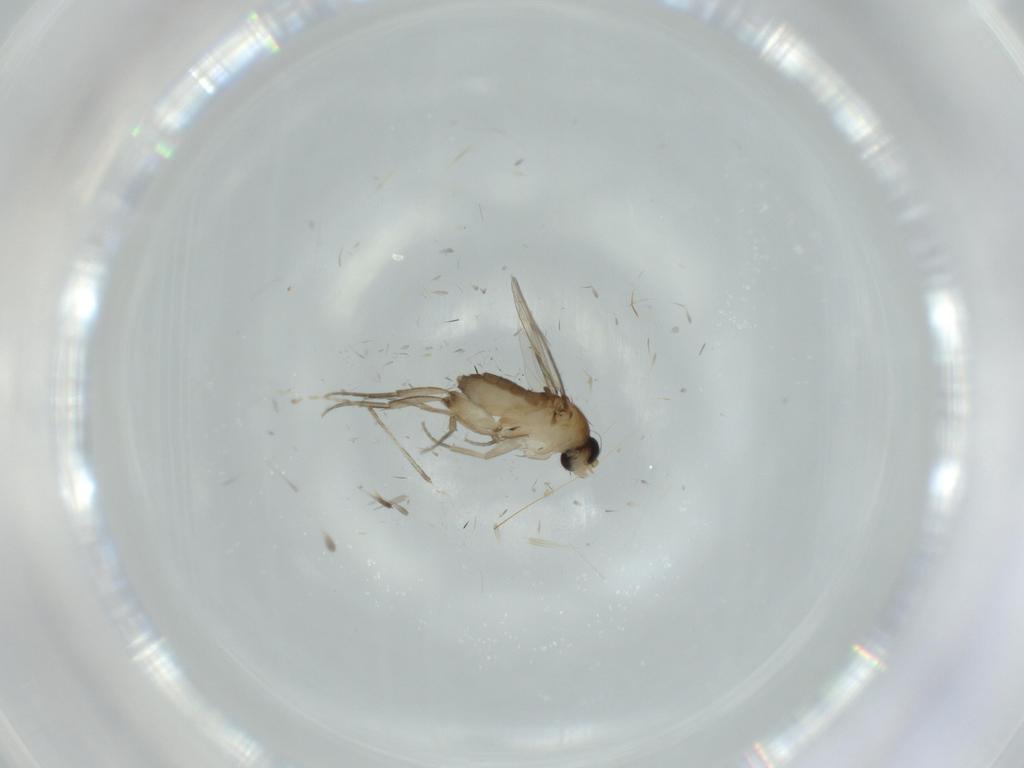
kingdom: Animalia
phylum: Arthropoda
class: Insecta
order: Diptera
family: Phoridae
